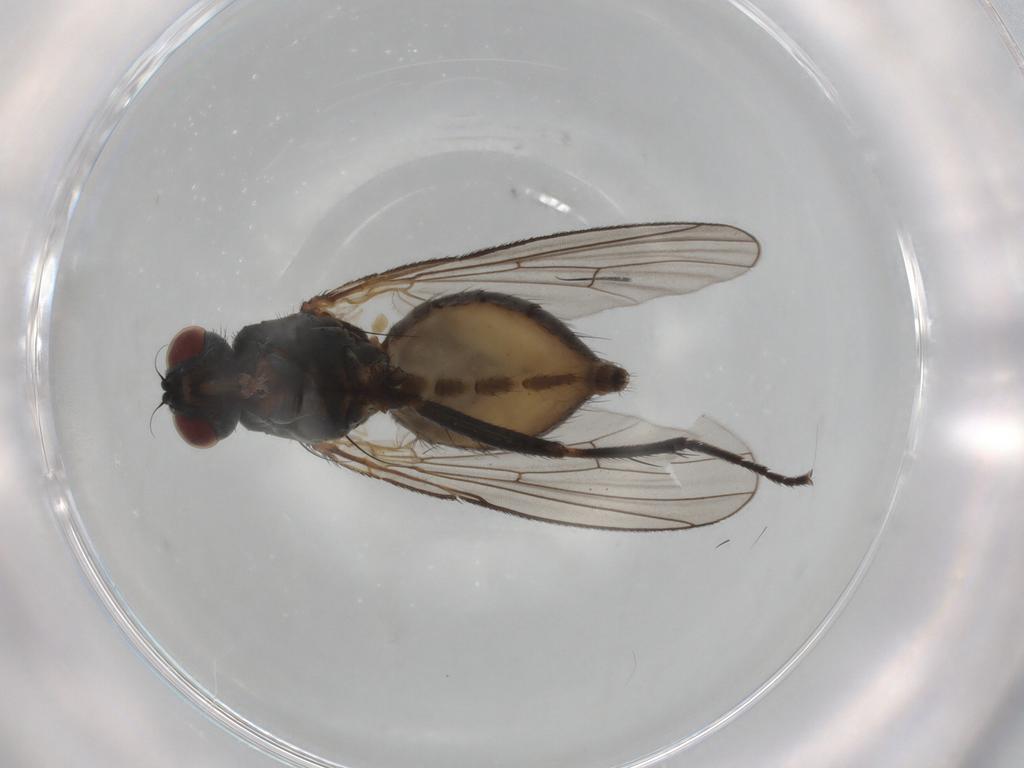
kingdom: Animalia
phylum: Arthropoda
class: Insecta
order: Diptera
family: Muscidae
